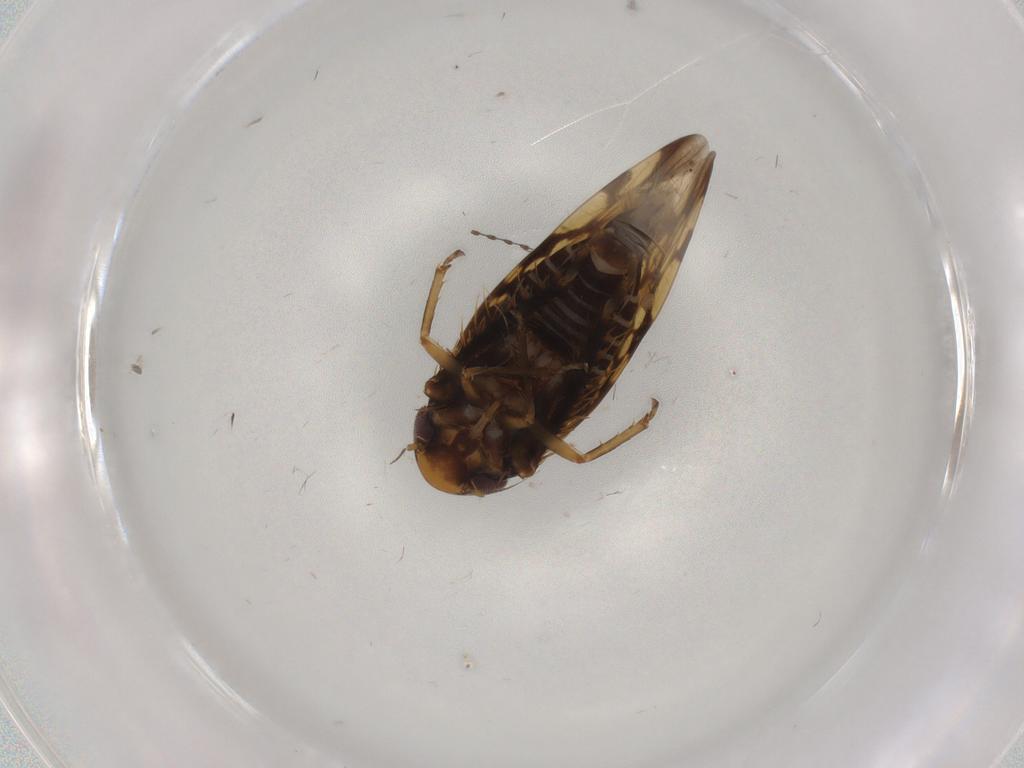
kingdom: Animalia
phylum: Arthropoda
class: Insecta
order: Hemiptera
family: Cicadellidae
